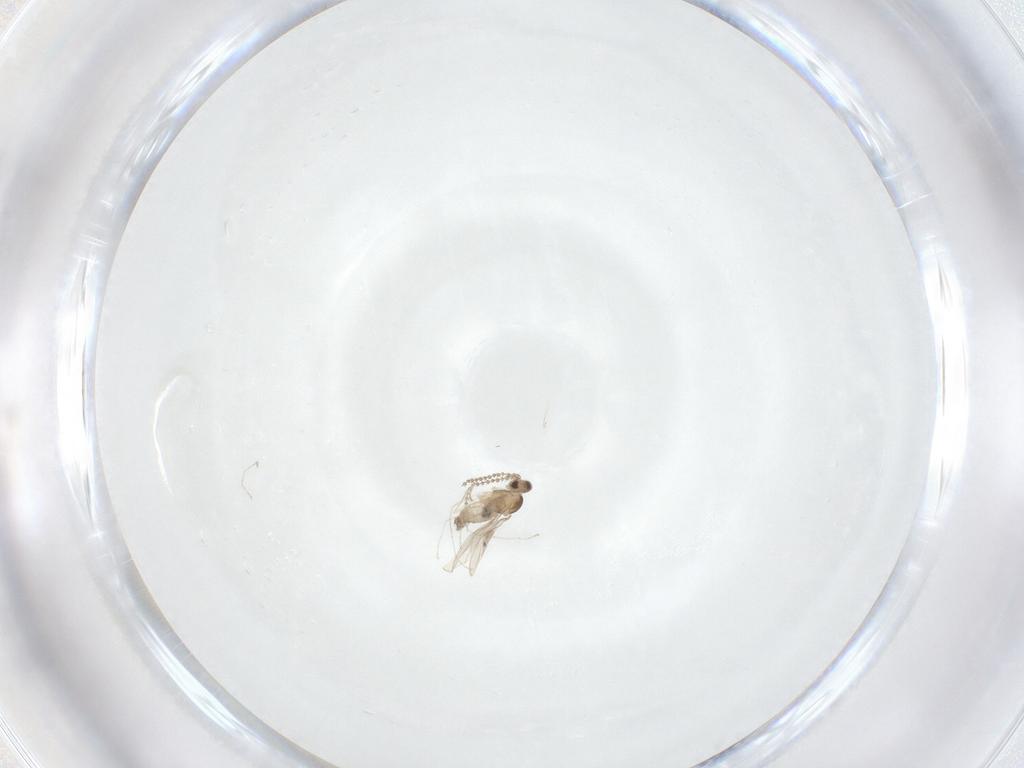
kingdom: Animalia
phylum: Arthropoda
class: Insecta
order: Diptera
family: Cecidomyiidae
